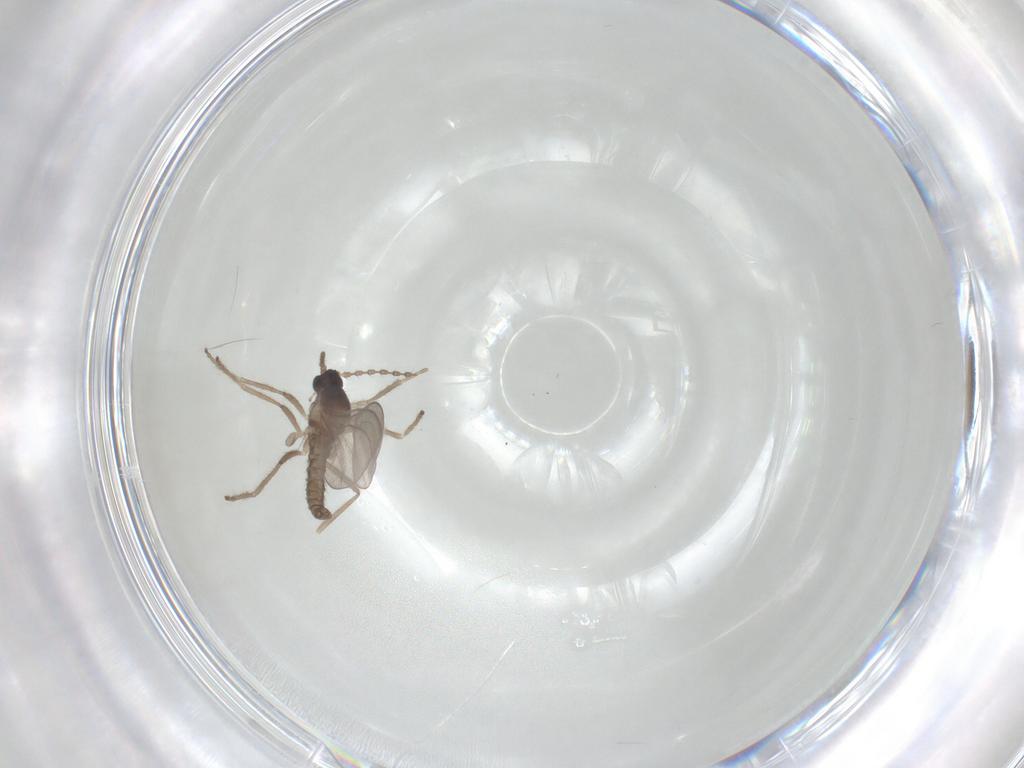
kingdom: Animalia
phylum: Arthropoda
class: Insecta
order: Diptera
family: Cecidomyiidae
